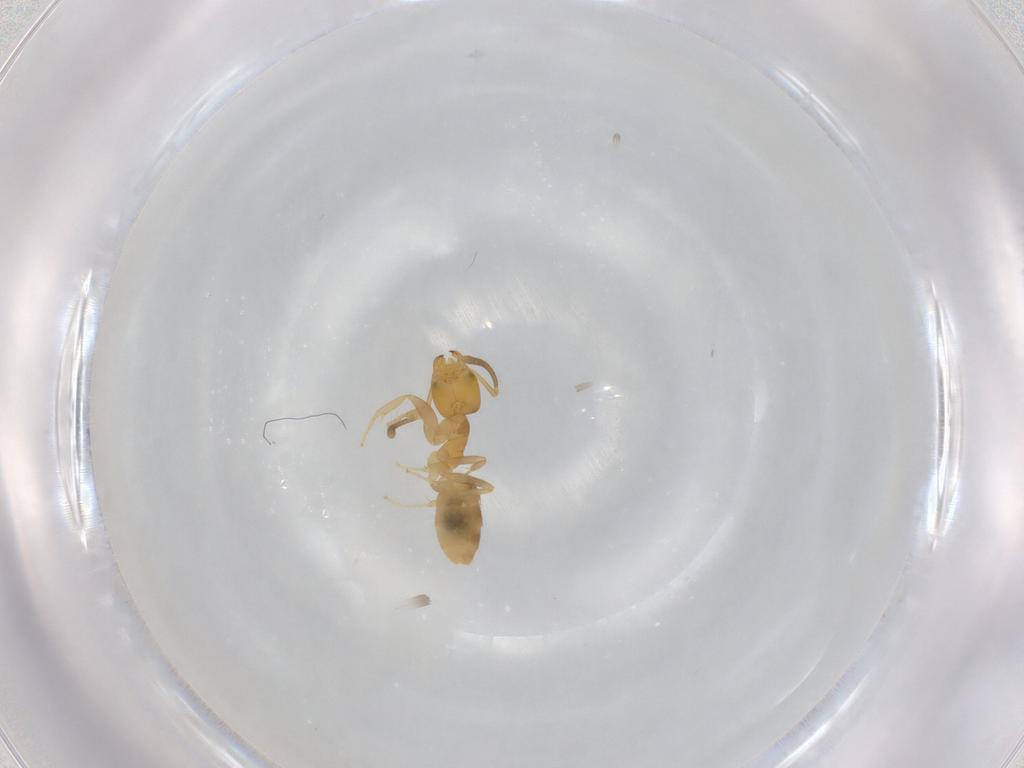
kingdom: Animalia
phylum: Arthropoda
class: Insecta
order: Hymenoptera
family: Formicidae
